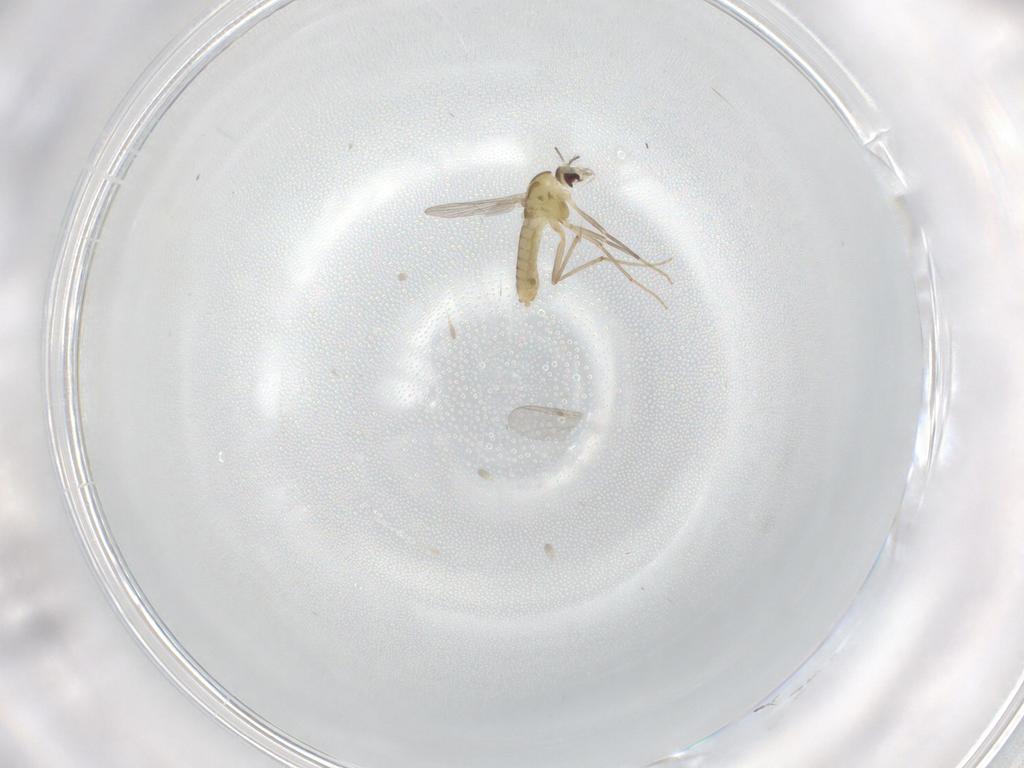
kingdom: Animalia
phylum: Arthropoda
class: Insecta
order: Diptera
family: Chironomidae
